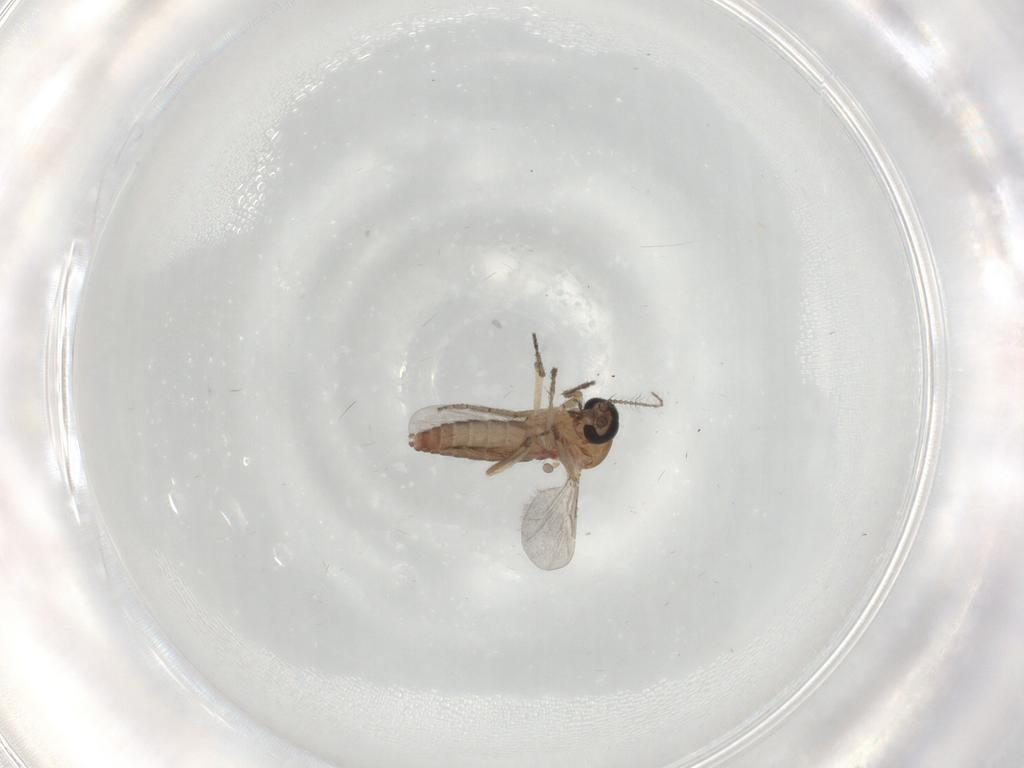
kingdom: Animalia
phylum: Arthropoda
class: Insecta
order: Diptera
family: Ceratopogonidae
